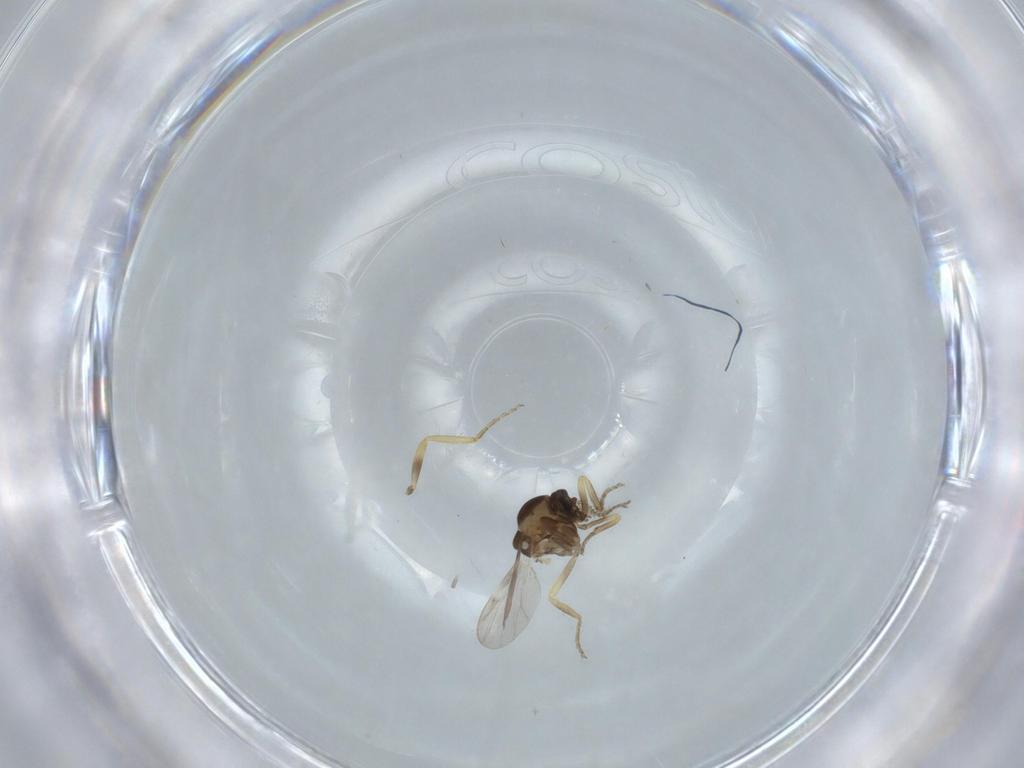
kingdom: Animalia
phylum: Arthropoda
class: Insecta
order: Diptera
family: Ceratopogonidae
